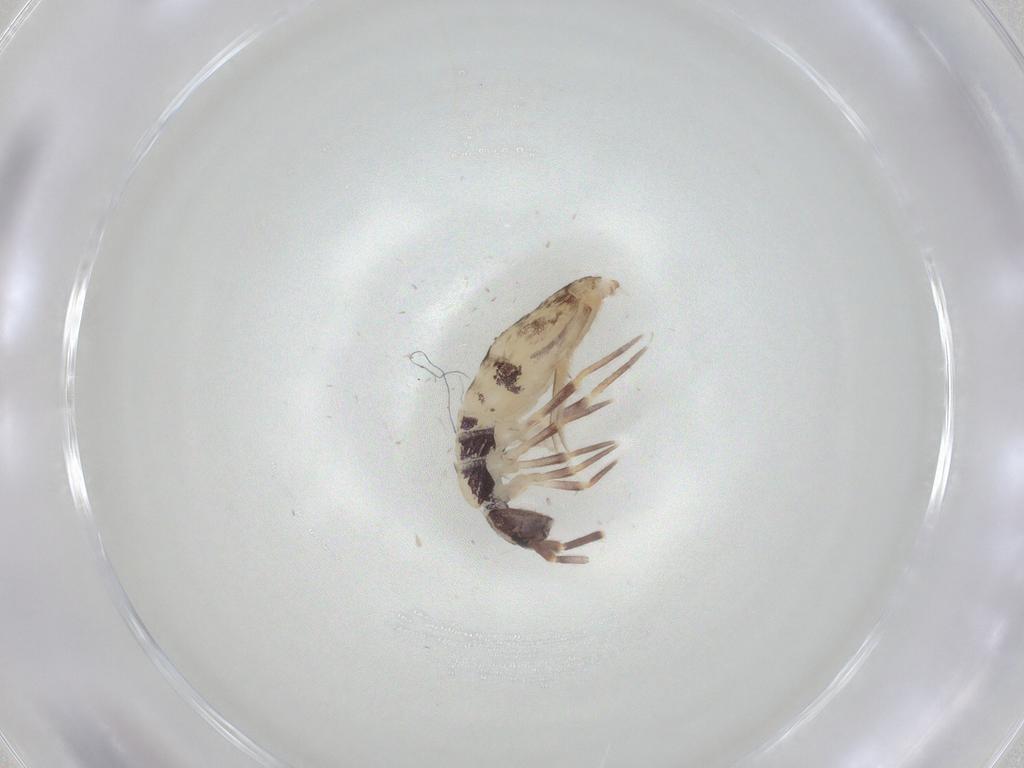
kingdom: Animalia
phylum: Arthropoda
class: Collembola
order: Entomobryomorpha
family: Entomobryidae
